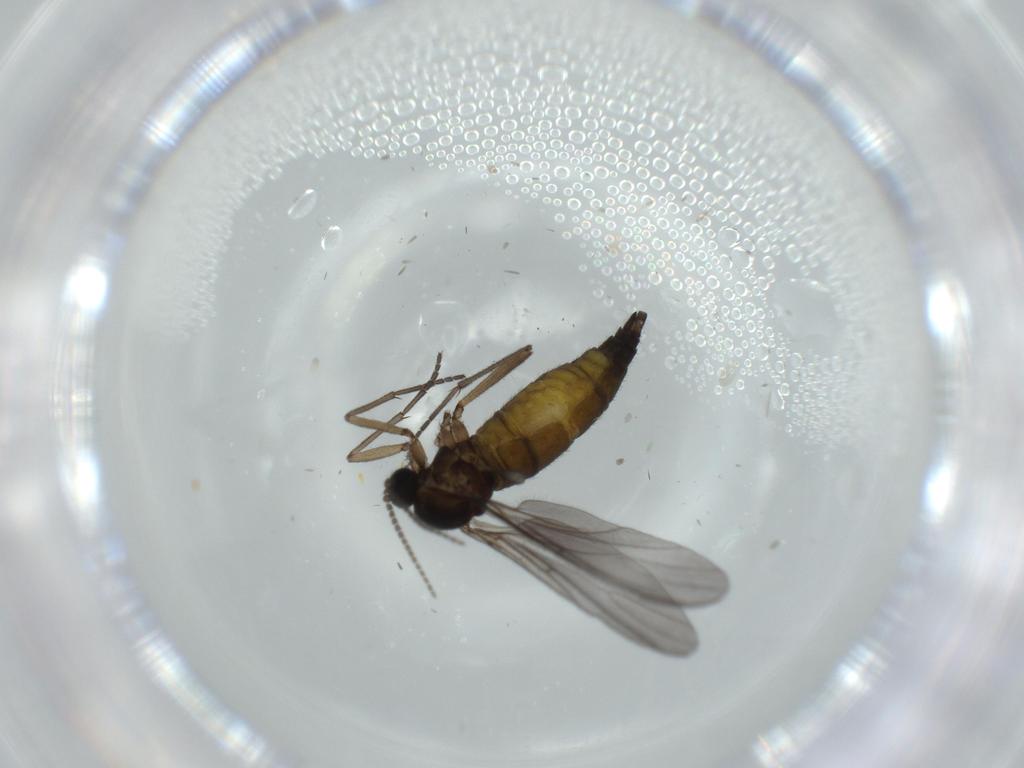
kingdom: Animalia
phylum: Arthropoda
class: Insecta
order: Diptera
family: Sciaridae
